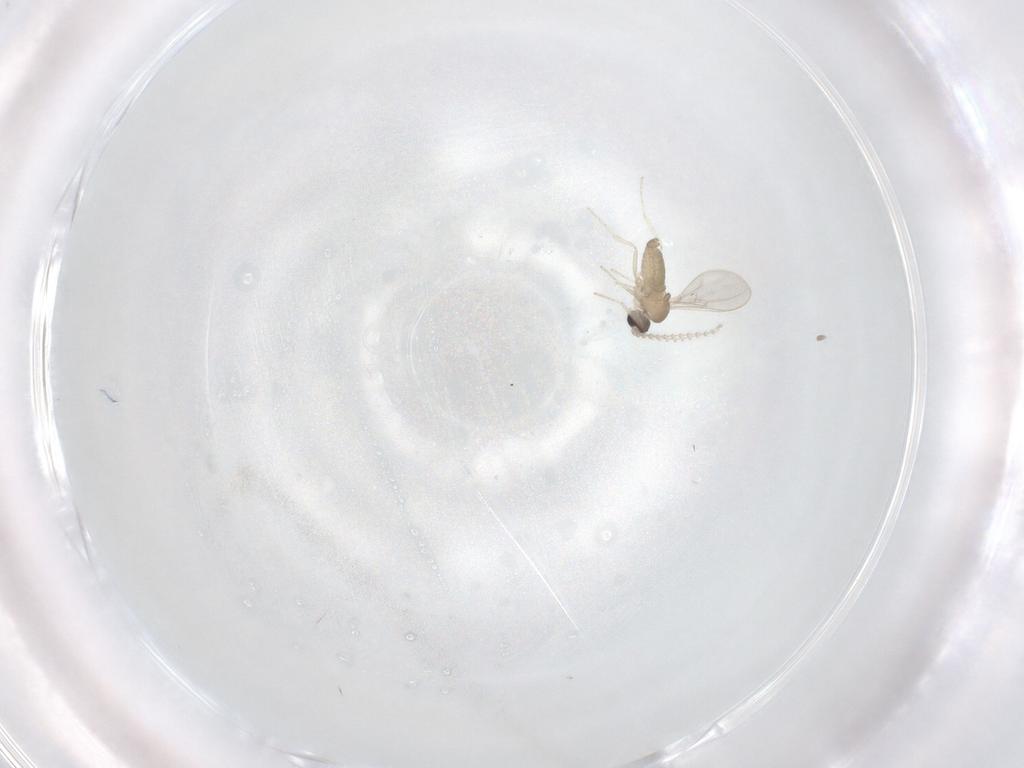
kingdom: Animalia
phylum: Arthropoda
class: Insecta
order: Diptera
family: Cecidomyiidae
